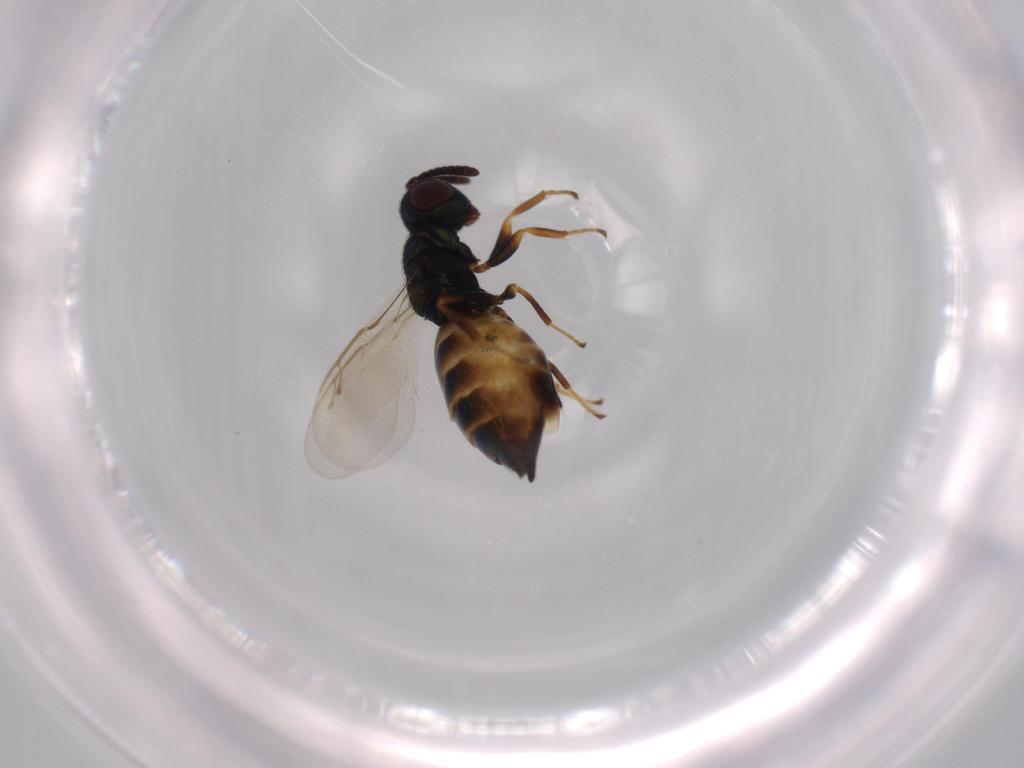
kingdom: Animalia
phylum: Arthropoda
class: Insecta
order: Hymenoptera
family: Pteromalidae
